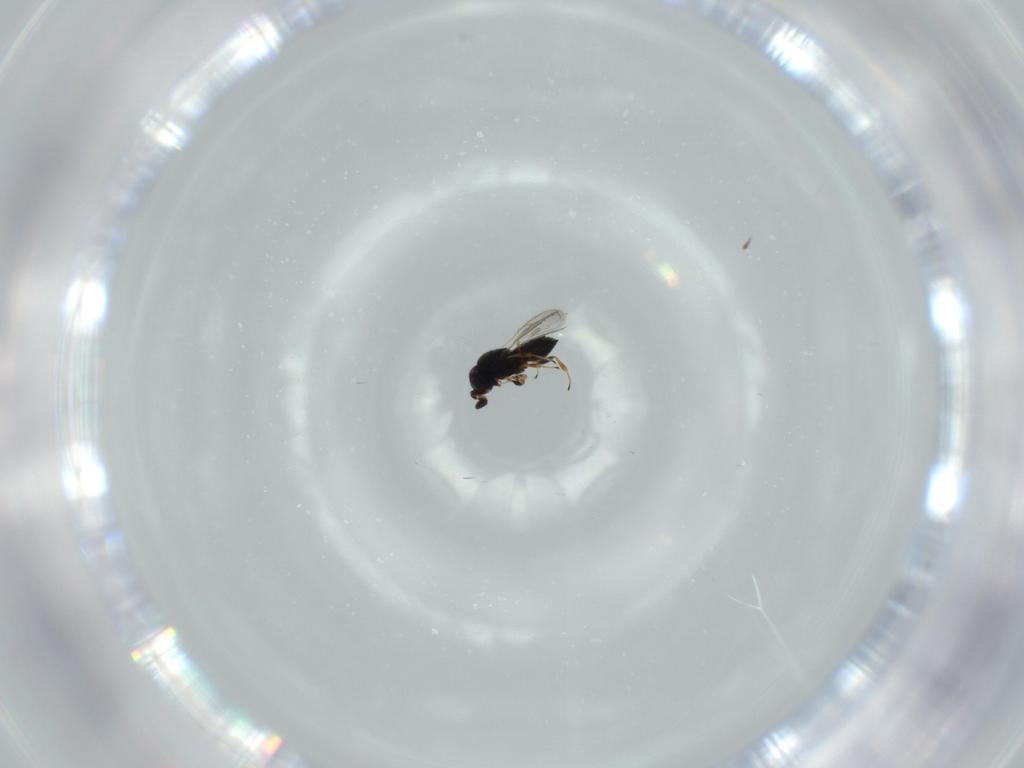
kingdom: Animalia
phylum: Arthropoda
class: Insecta
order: Hymenoptera
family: Scelionidae
